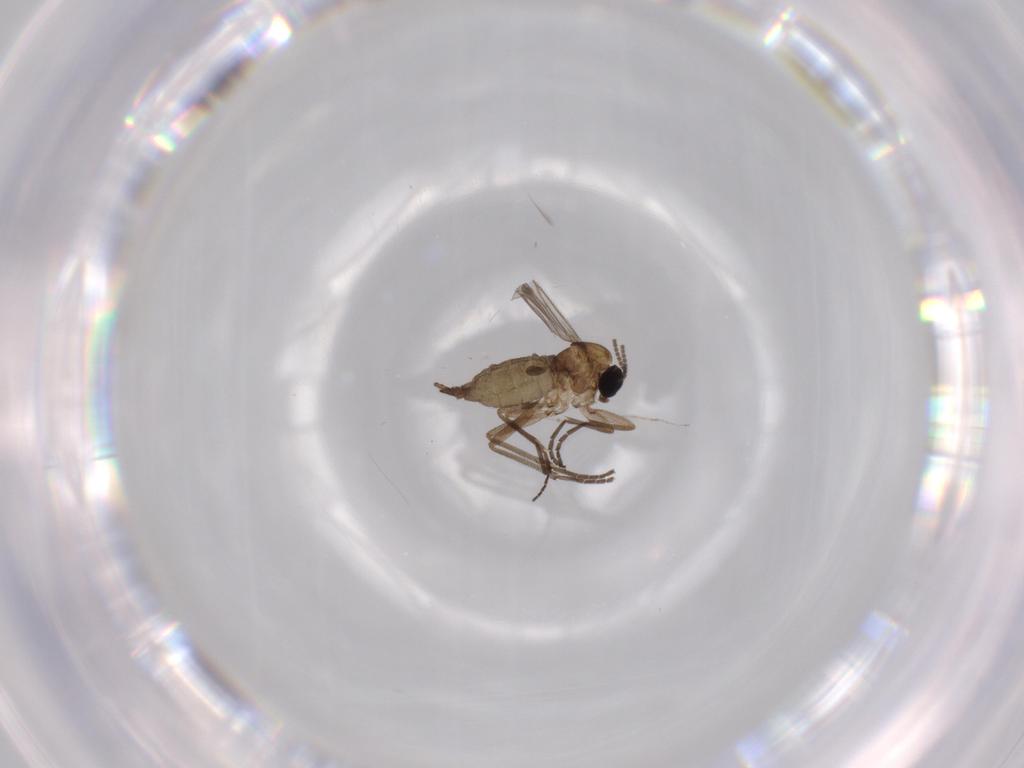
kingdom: Animalia
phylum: Arthropoda
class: Insecta
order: Diptera
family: Sciaridae
